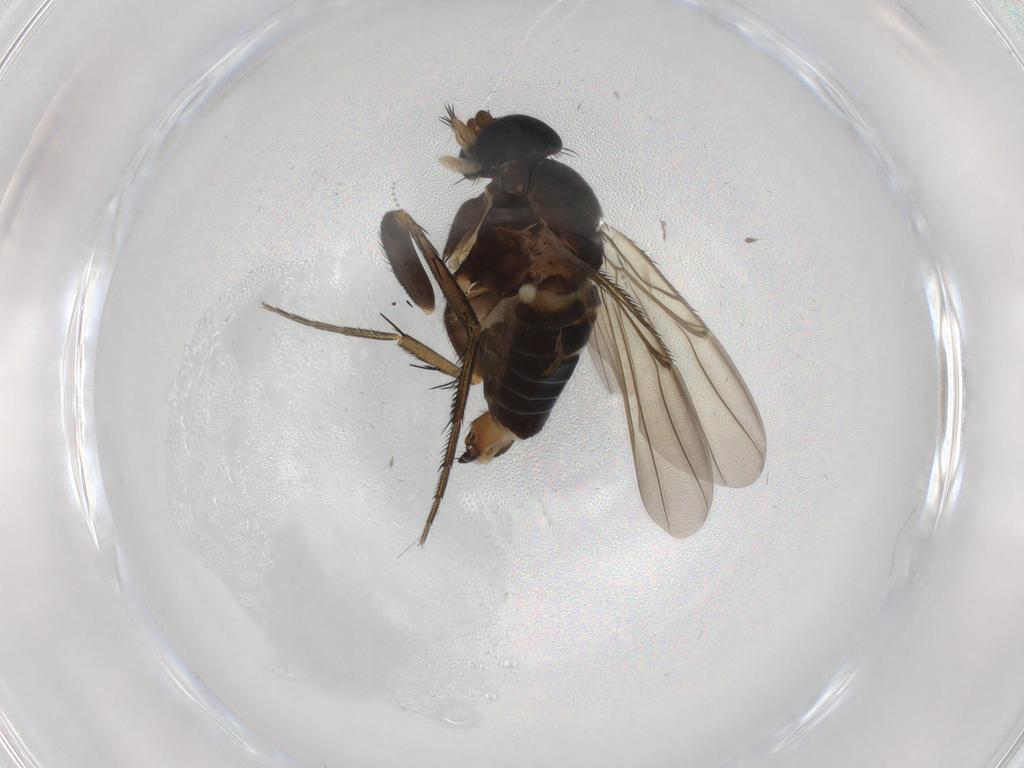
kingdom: Animalia
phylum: Arthropoda
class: Insecta
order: Diptera
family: Phoridae
